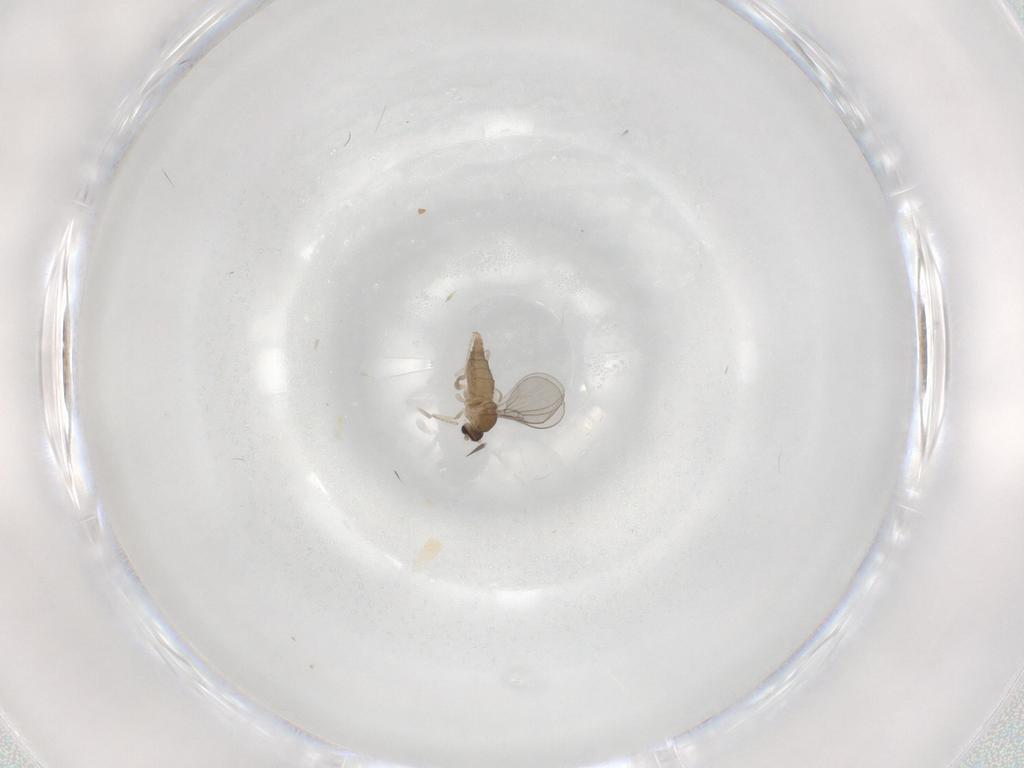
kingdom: Animalia
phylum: Arthropoda
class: Insecta
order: Diptera
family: Cecidomyiidae
